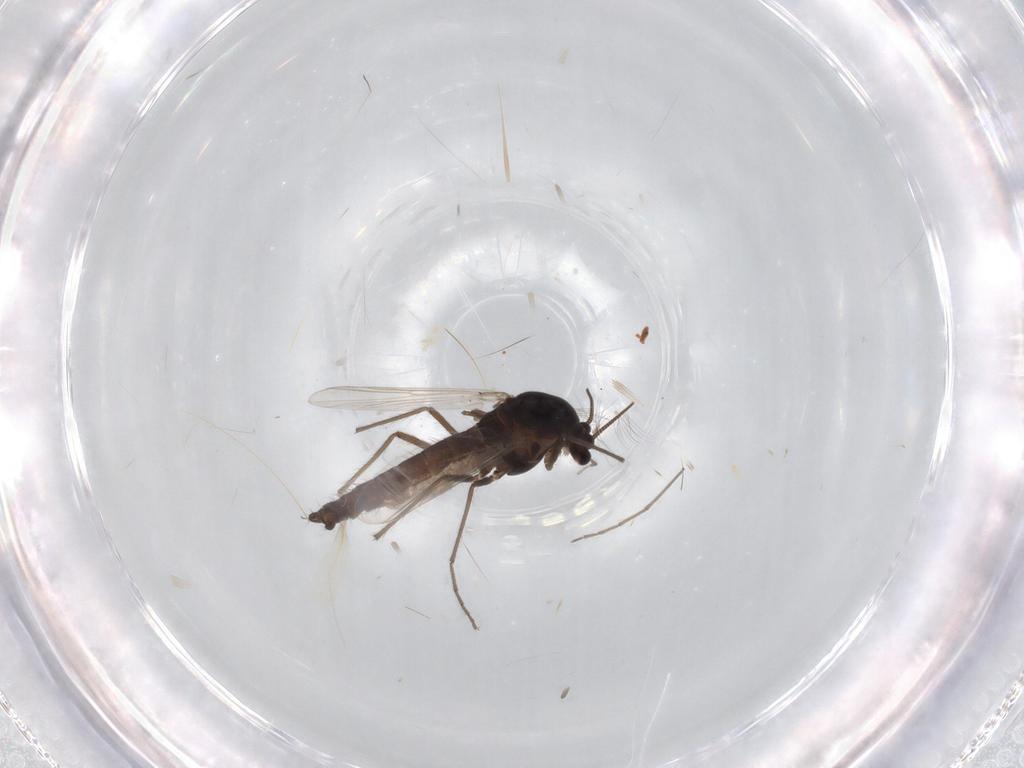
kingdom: Animalia
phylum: Arthropoda
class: Insecta
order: Diptera
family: Chironomidae
